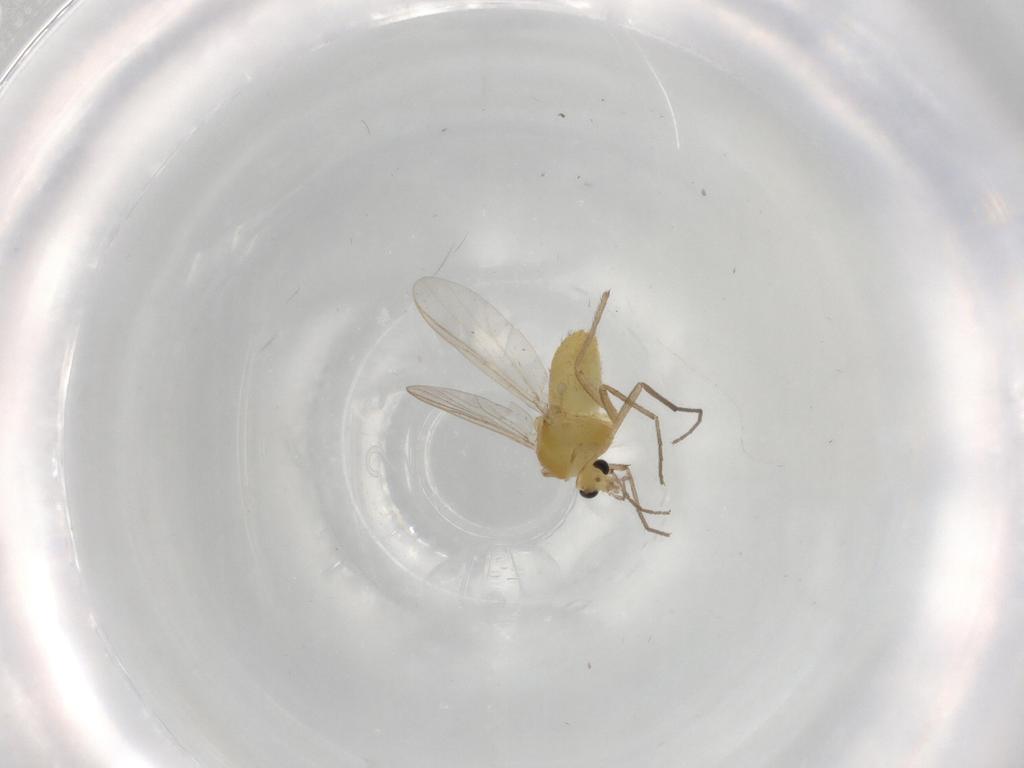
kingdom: Animalia
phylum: Arthropoda
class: Insecta
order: Diptera
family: Chironomidae
